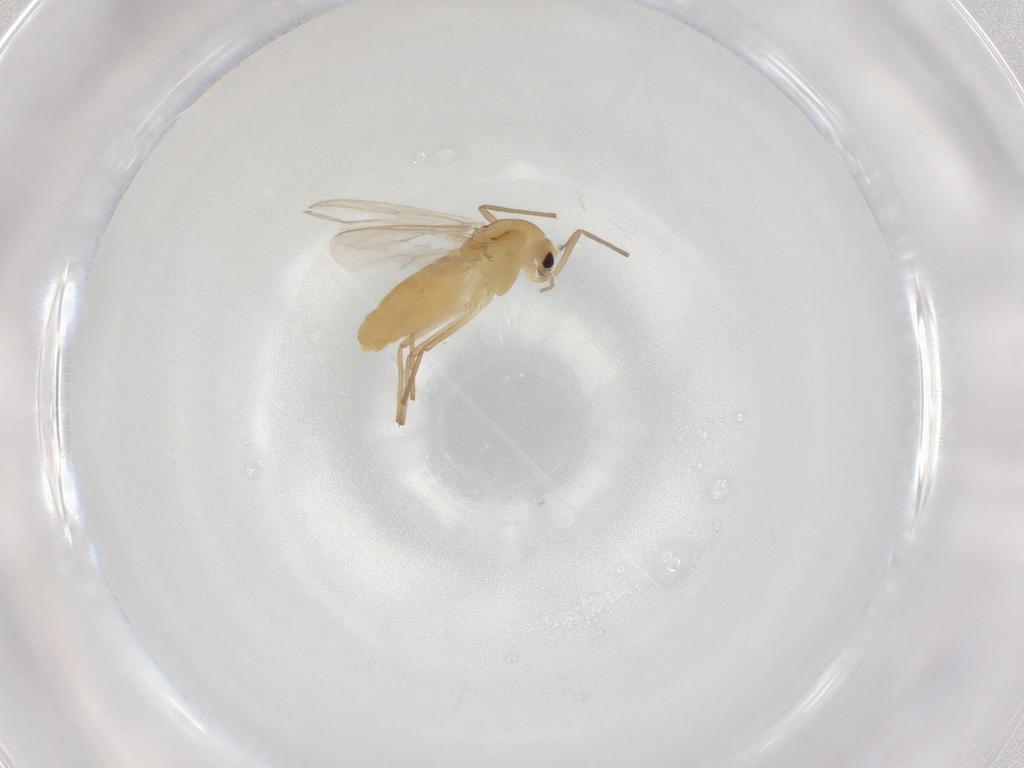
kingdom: Animalia
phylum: Arthropoda
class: Insecta
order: Diptera
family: Chironomidae
